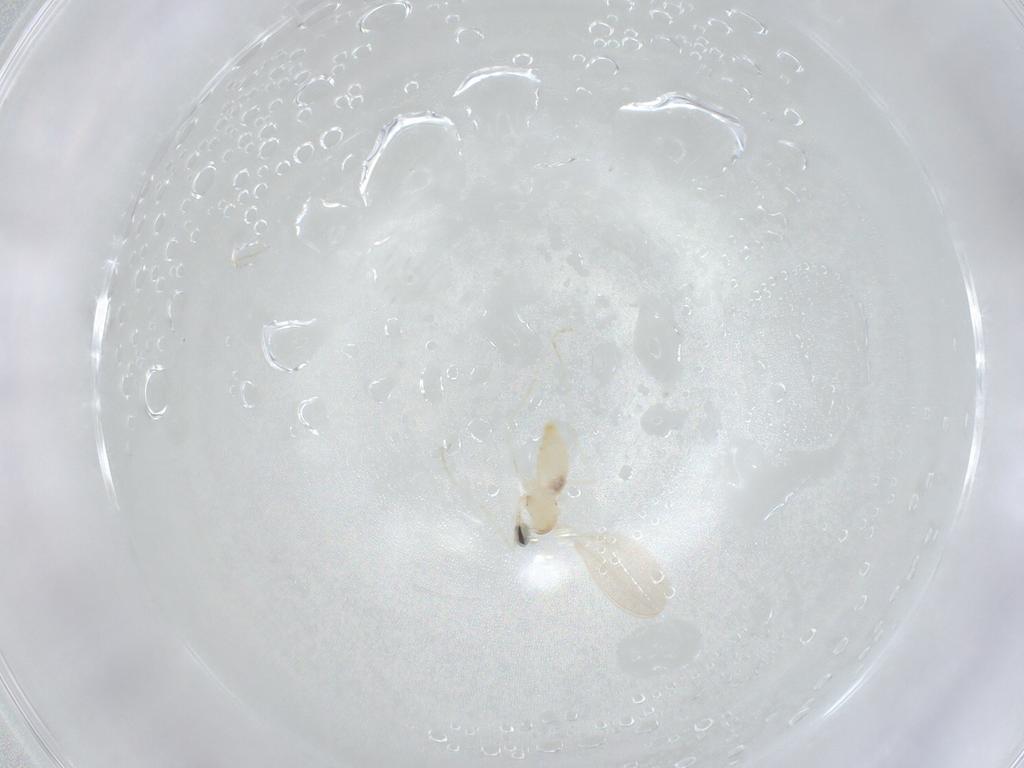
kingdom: Animalia
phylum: Arthropoda
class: Insecta
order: Diptera
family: Cecidomyiidae
